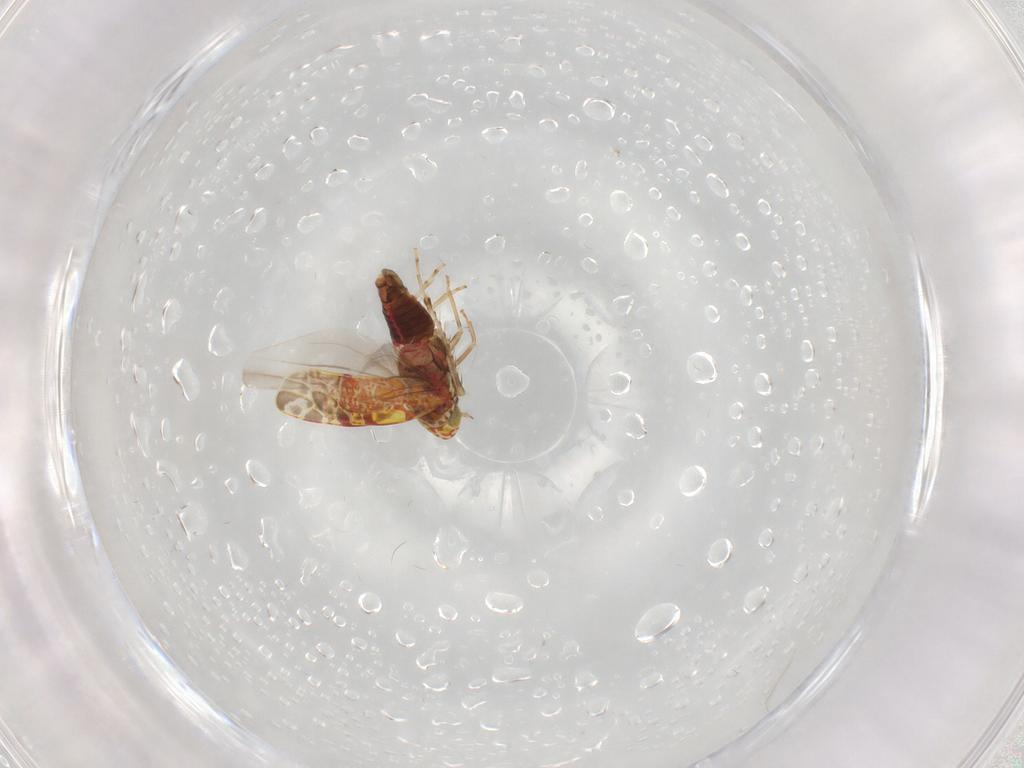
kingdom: Animalia
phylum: Arthropoda
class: Insecta
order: Hemiptera
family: Cicadellidae
